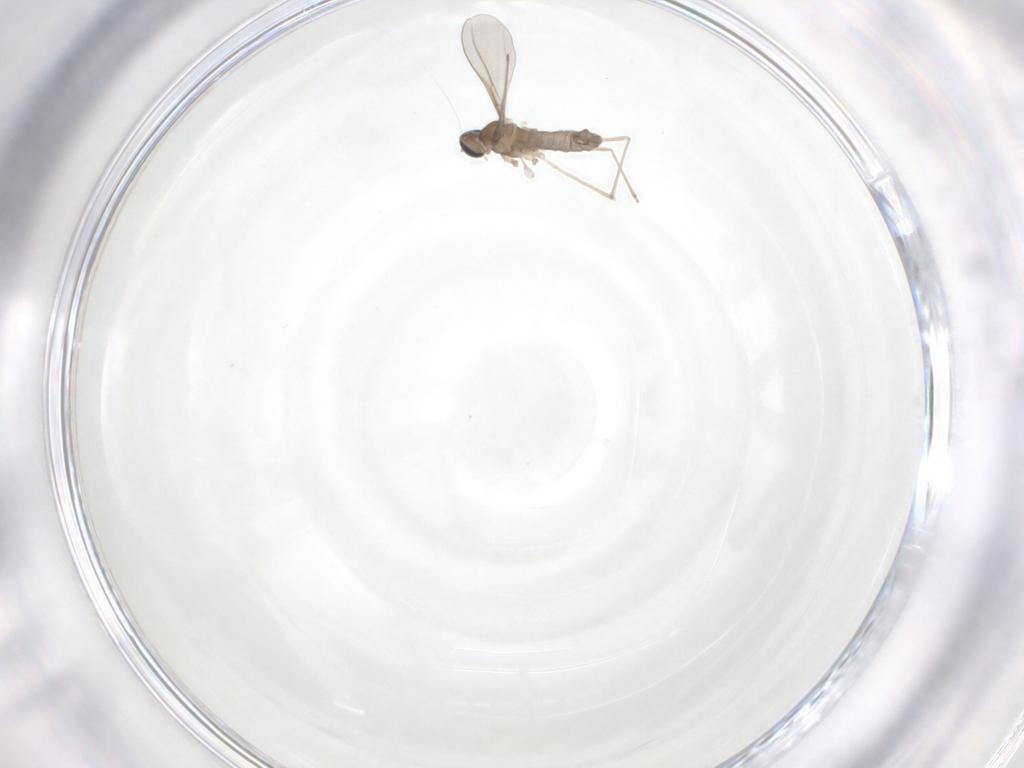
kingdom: Animalia
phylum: Arthropoda
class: Insecta
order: Diptera
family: Cecidomyiidae
